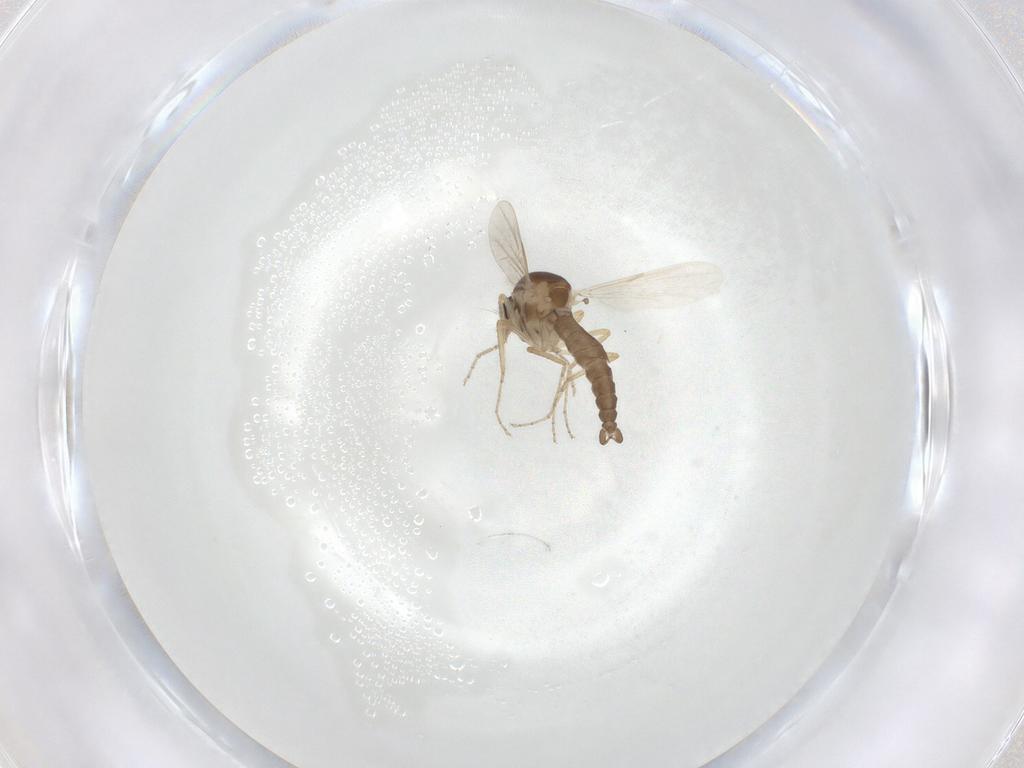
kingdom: Animalia
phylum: Arthropoda
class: Insecta
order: Diptera
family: Ceratopogonidae
